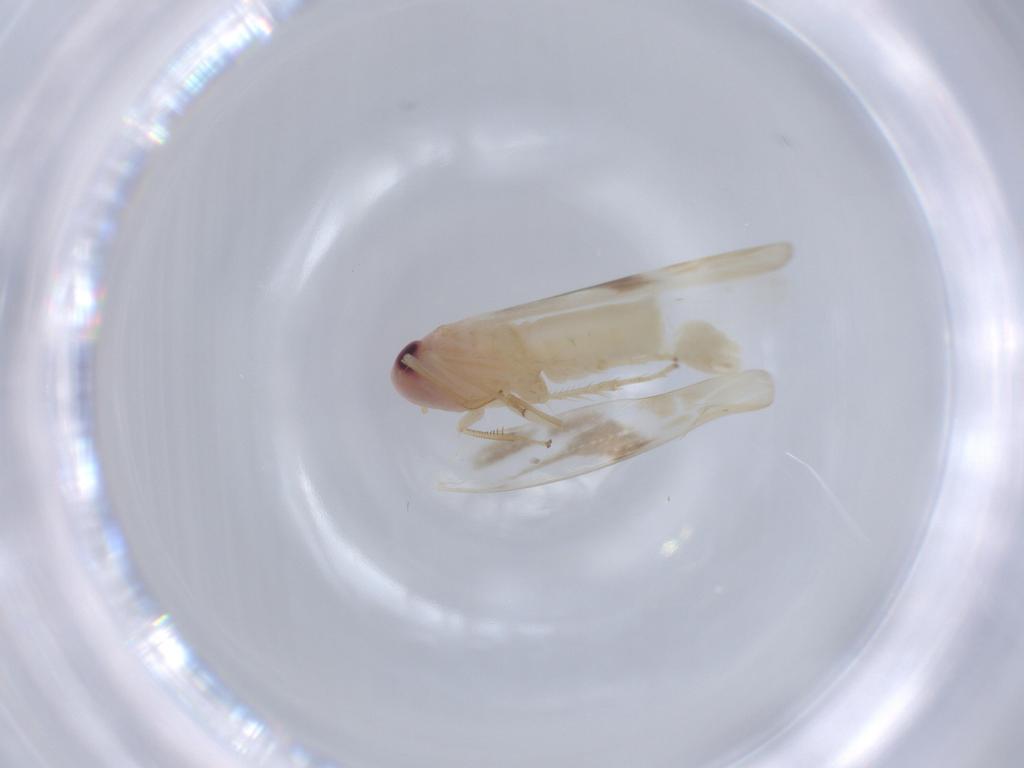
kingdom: Animalia
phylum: Arthropoda
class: Insecta
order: Hemiptera
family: Cicadellidae
